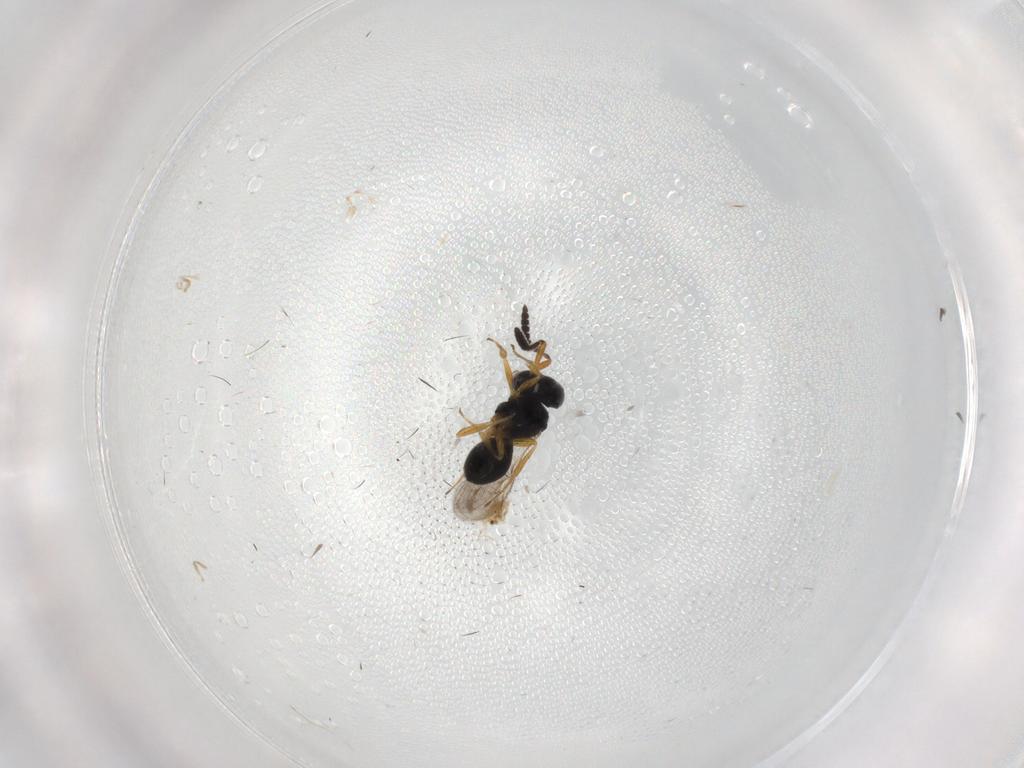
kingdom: Animalia
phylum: Arthropoda
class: Insecta
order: Hymenoptera
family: Scelionidae
